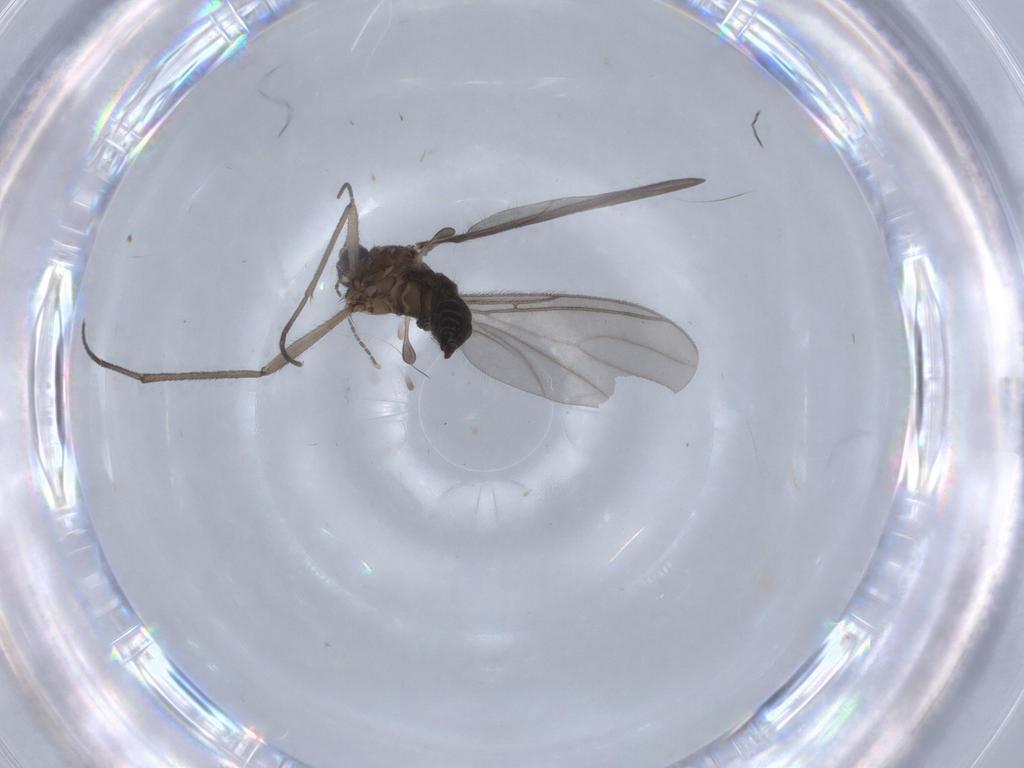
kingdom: Animalia
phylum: Arthropoda
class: Insecta
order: Diptera
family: Sciaridae
